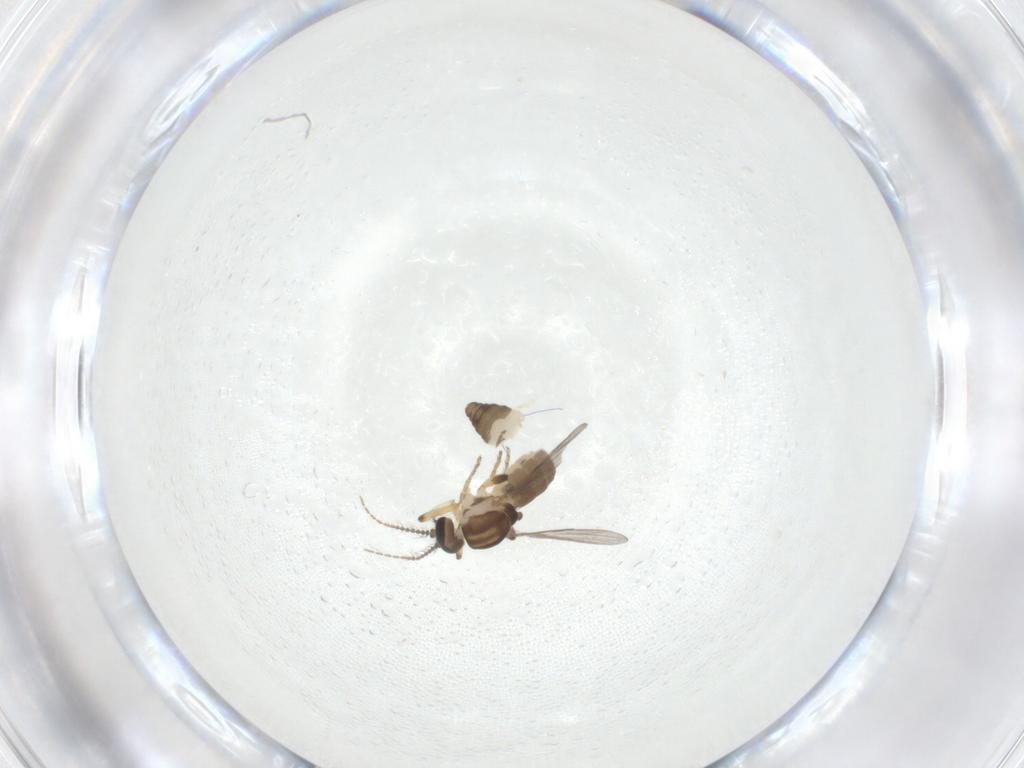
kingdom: Animalia
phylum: Arthropoda
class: Insecta
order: Diptera
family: Ceratopogonidae
